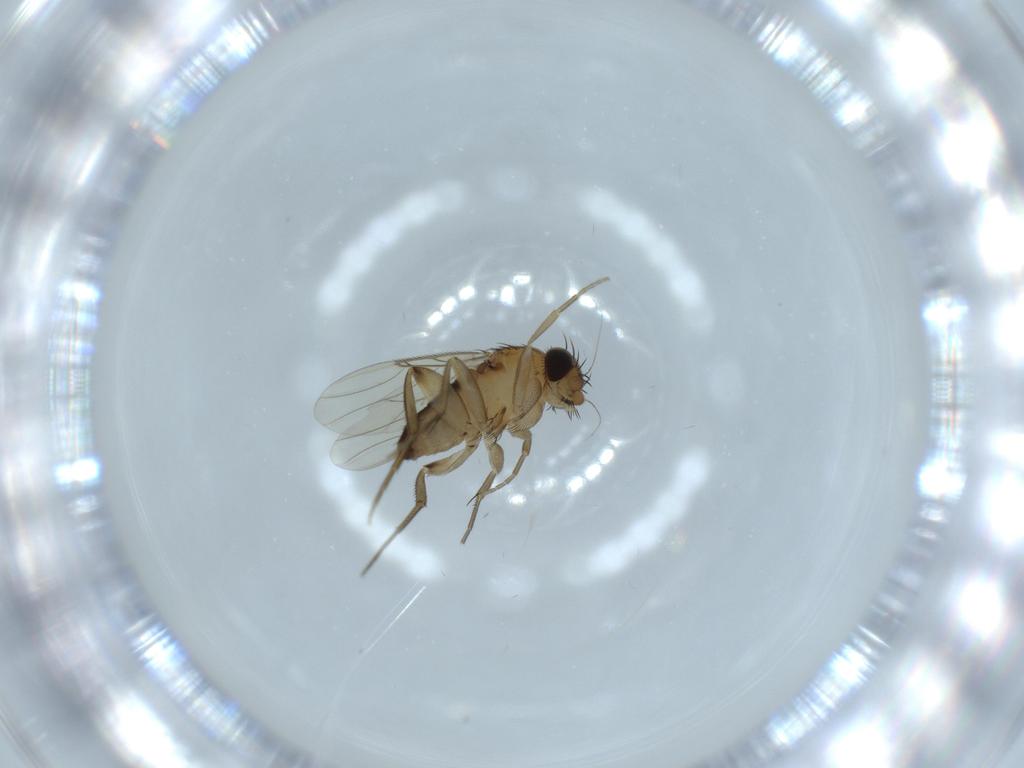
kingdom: Animalia
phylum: Arthropoda
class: Insecta
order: Diptera
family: Phoridae
